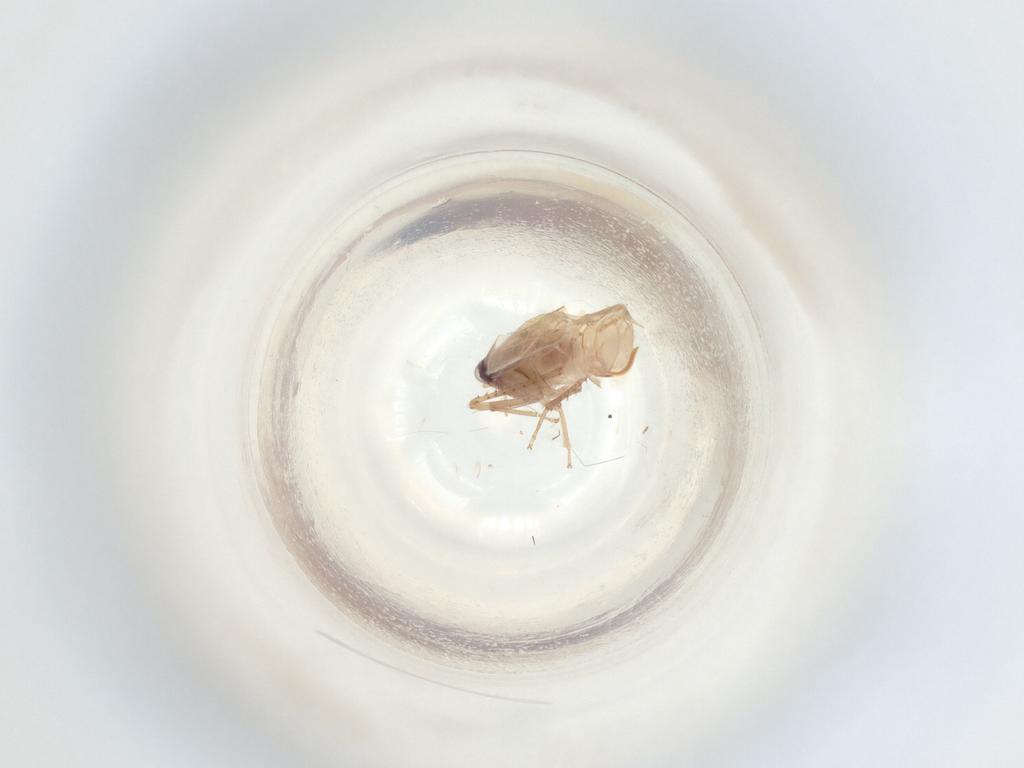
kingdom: Animalia
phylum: Arthropoda
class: Insecta
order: Hemiptera
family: Cicadellidae
